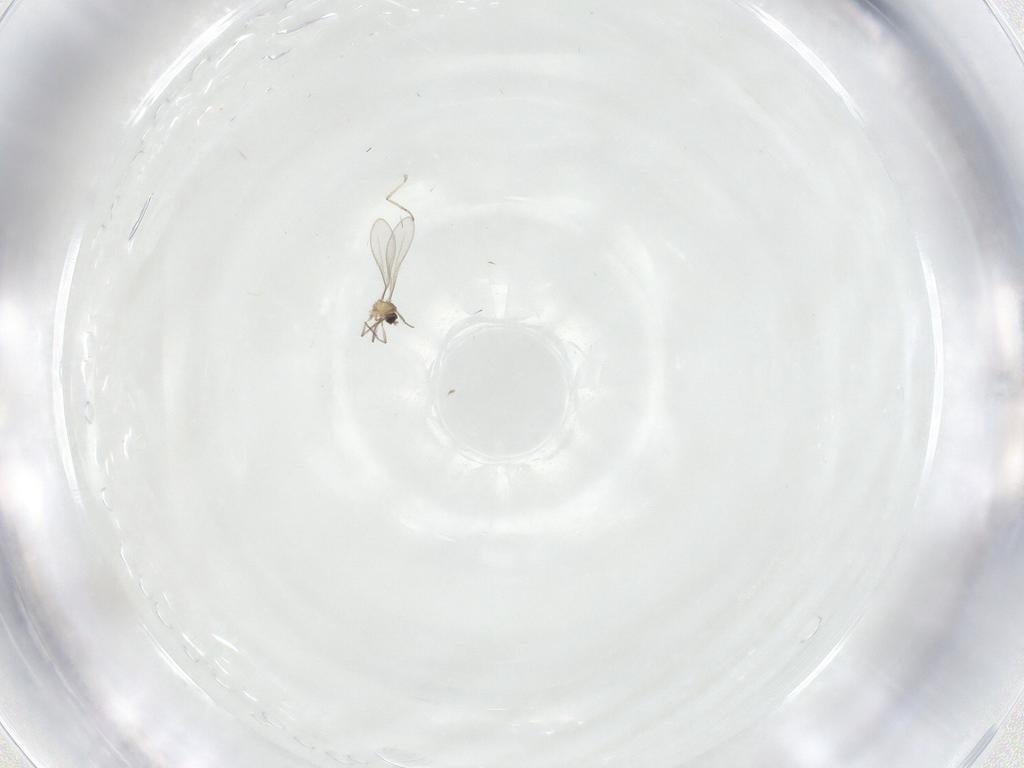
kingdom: Animalia
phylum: Arthropoda
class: Insecta
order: Diptera
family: Cecidomyiidae
